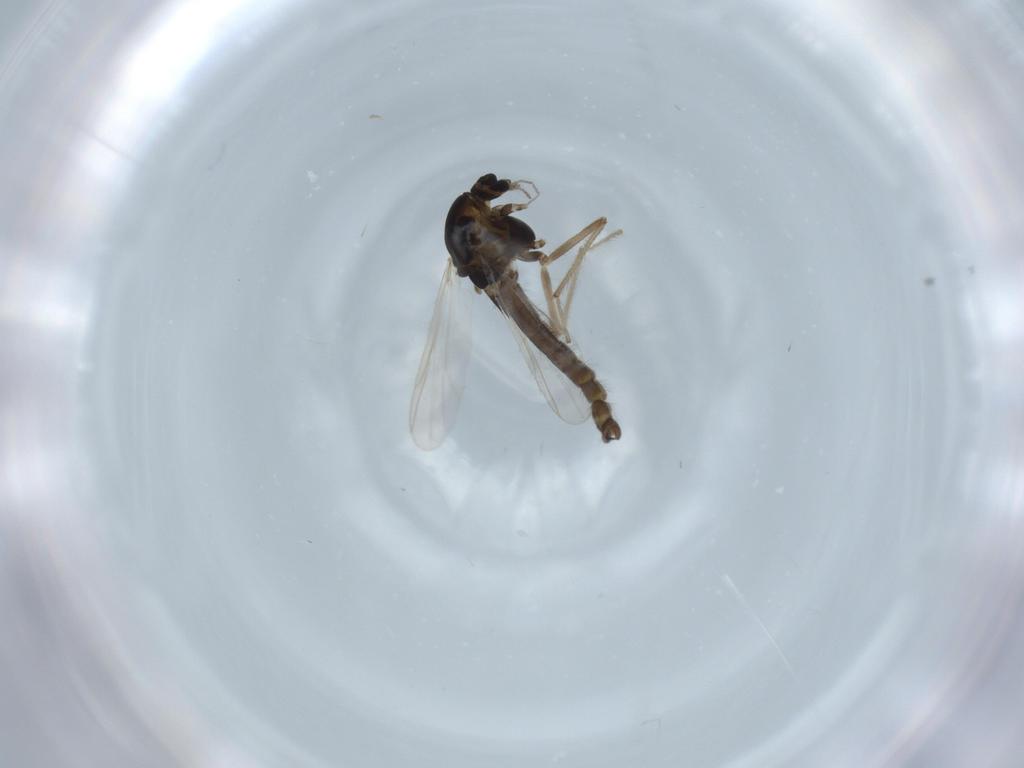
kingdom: Animalia
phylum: Arthropoda
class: Insecta
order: Diptera
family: Chironomidae
